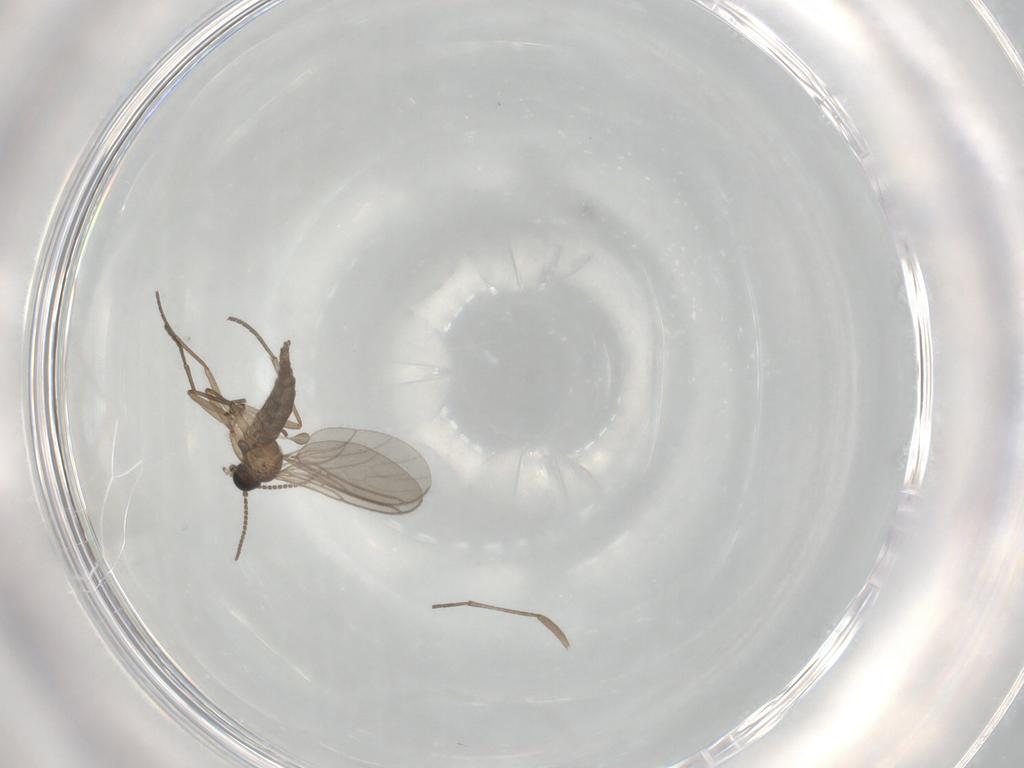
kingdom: Animalia
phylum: Arthropoda
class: Insecta
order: Diptera
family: Sciaridae
